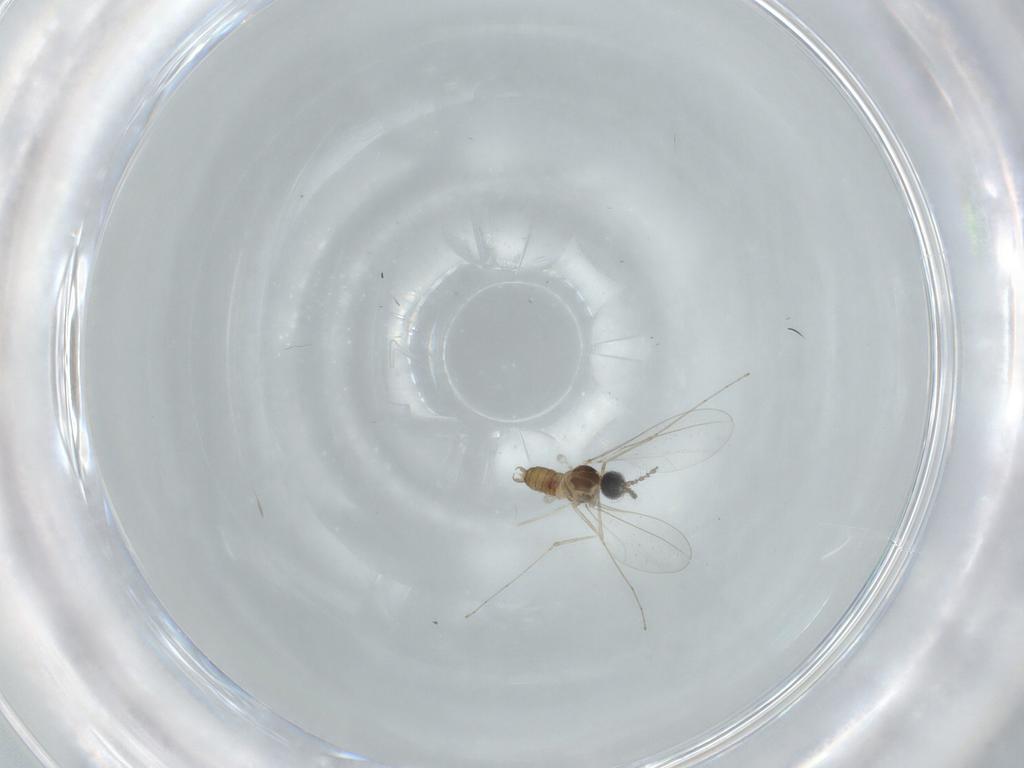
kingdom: Animalia
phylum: Arthropoda
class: Insecta
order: Diptera
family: Cecidomyiidae
